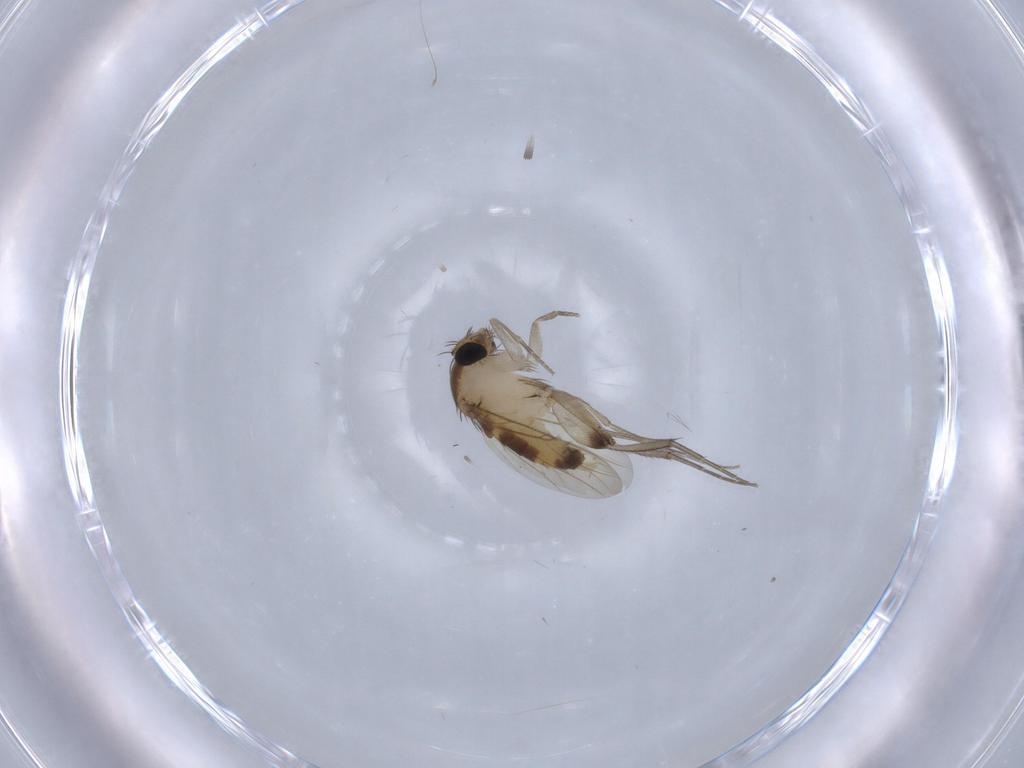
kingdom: Animalia
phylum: Arthropoda
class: Insecta
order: Diptera
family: Phoridae
